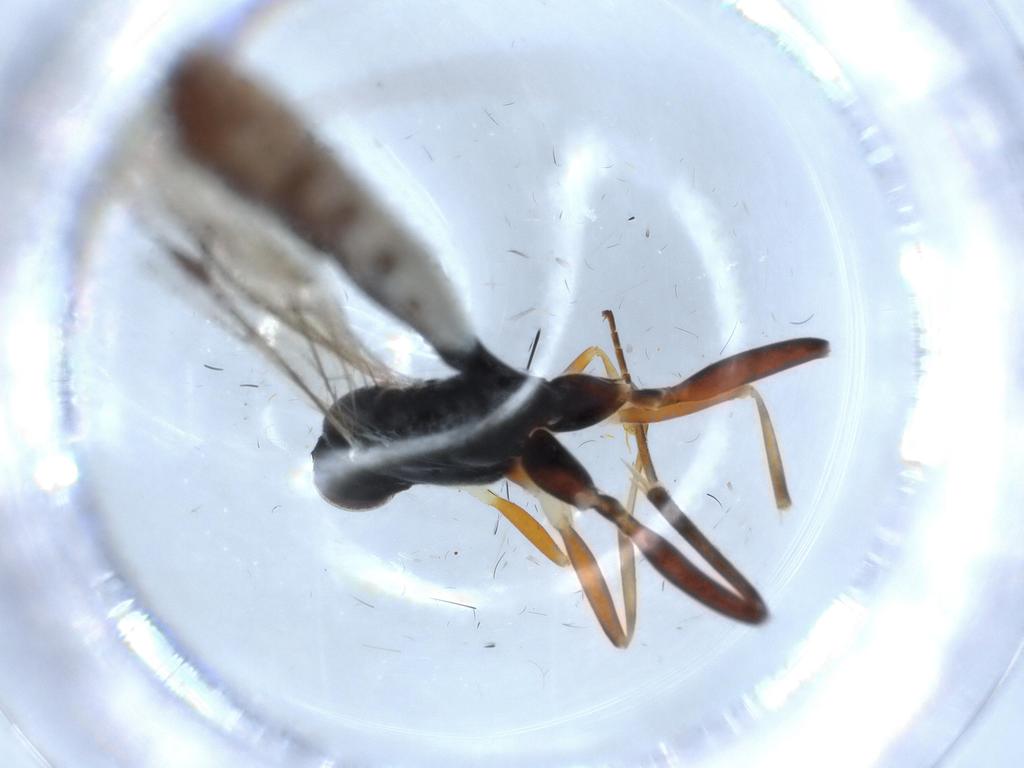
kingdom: Animalia
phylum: Arthropoda
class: Insecta
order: Hymenoptera
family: Ichneumonidae
